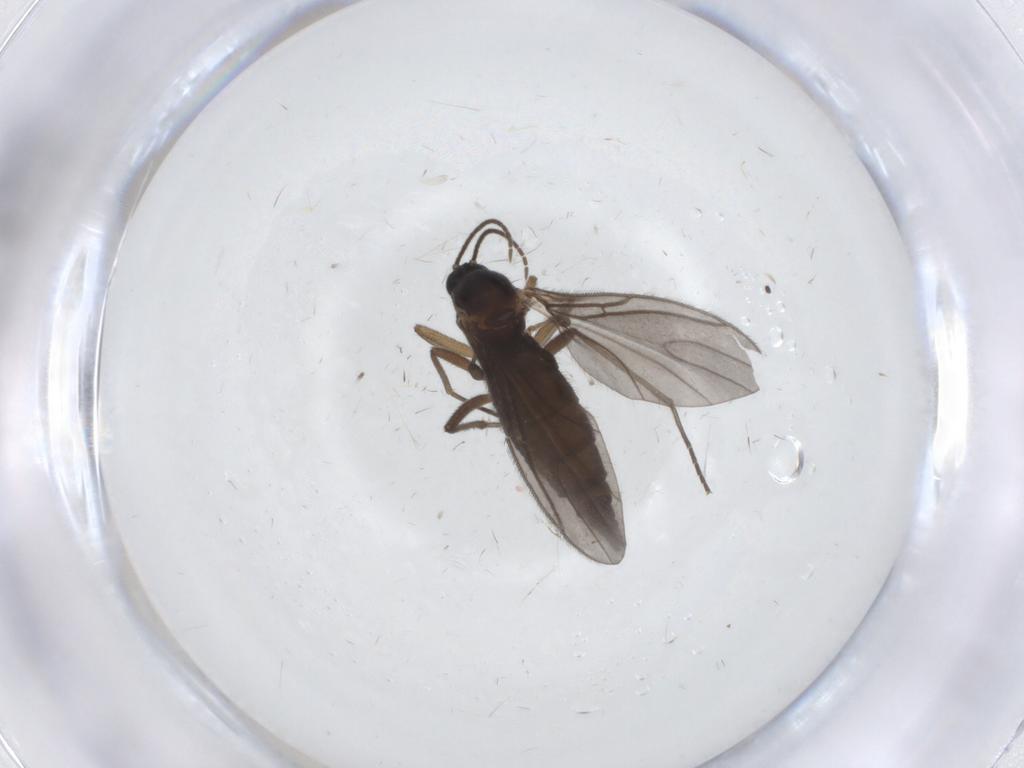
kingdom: Animalia
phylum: Arthropoda
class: Insecta
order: Diptera
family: Sciaridae
